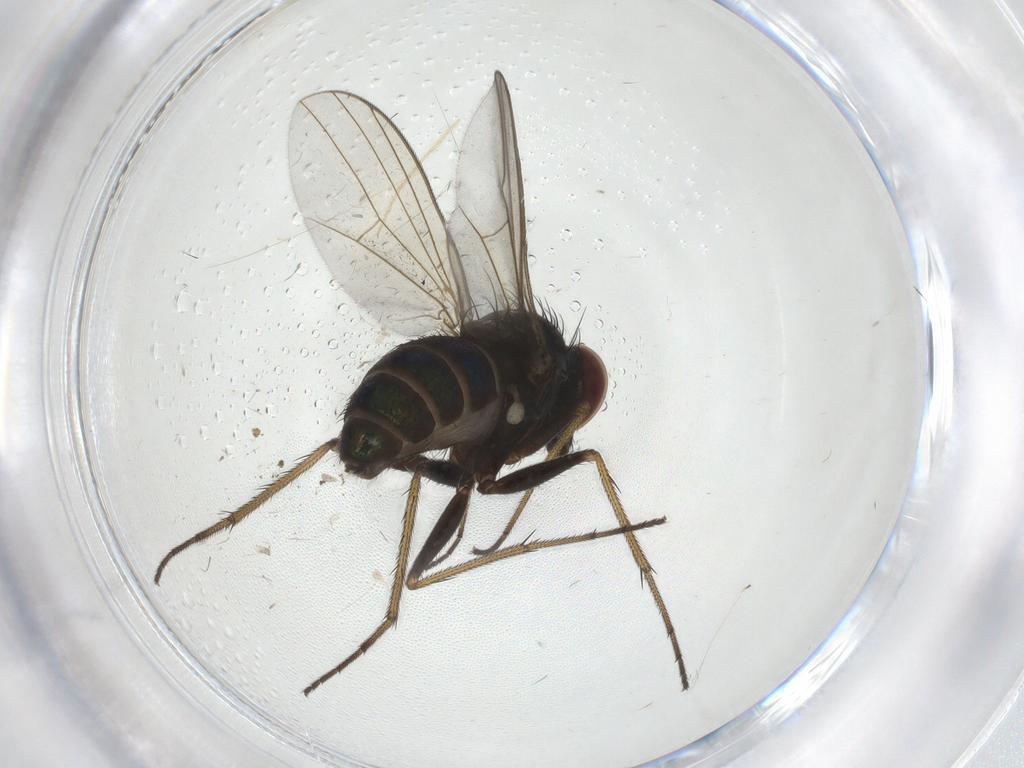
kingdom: Animalia
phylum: Arthropoda
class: Insecta
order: Diptera
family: Dolichopodidae
